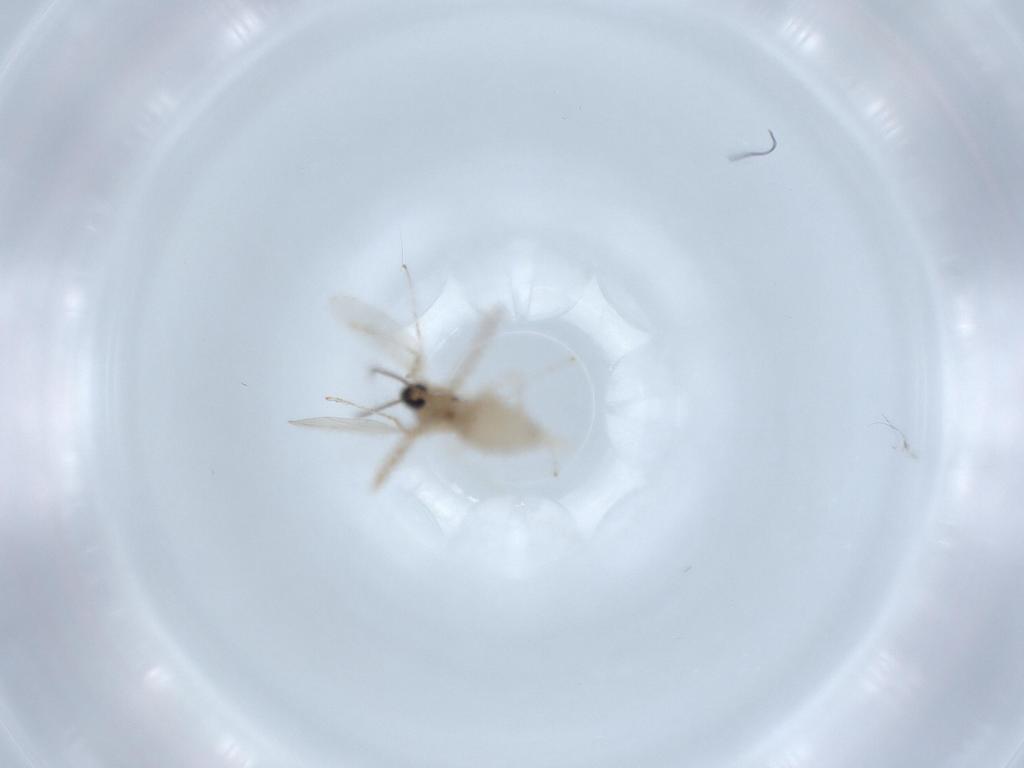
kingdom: Animalia
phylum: Arthropoda
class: Insecta
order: Diptera
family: Cecidomyiidae
